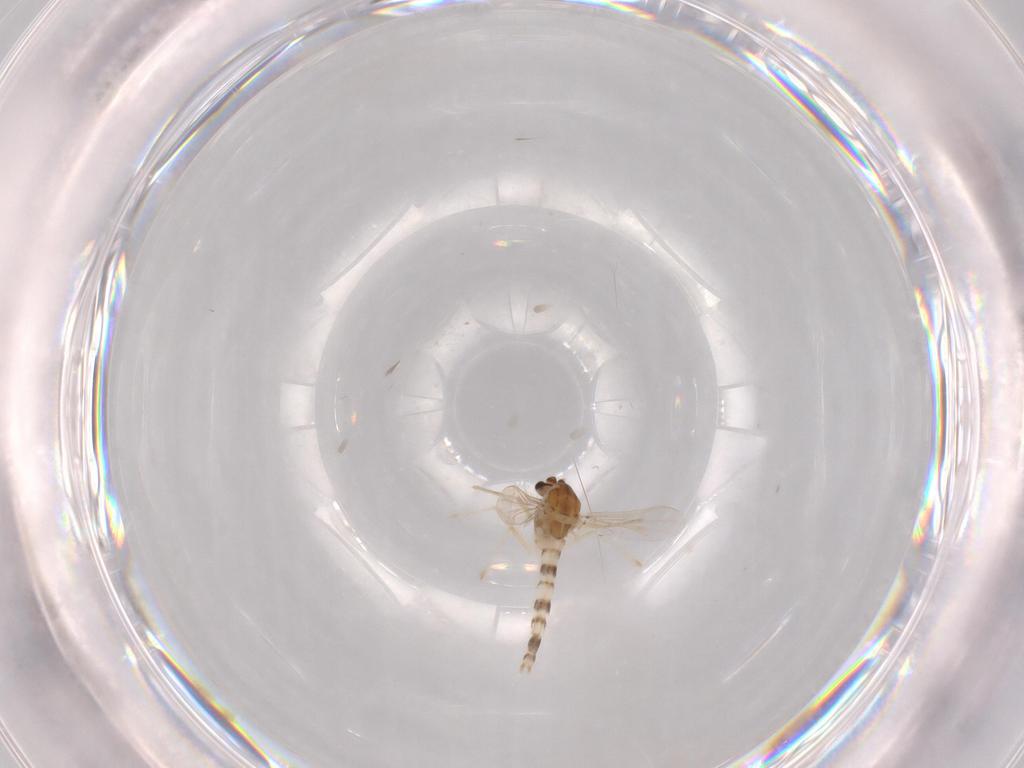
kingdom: Animalia
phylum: Arthropoda
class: Insecta
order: Diptera
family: Chironomidae
